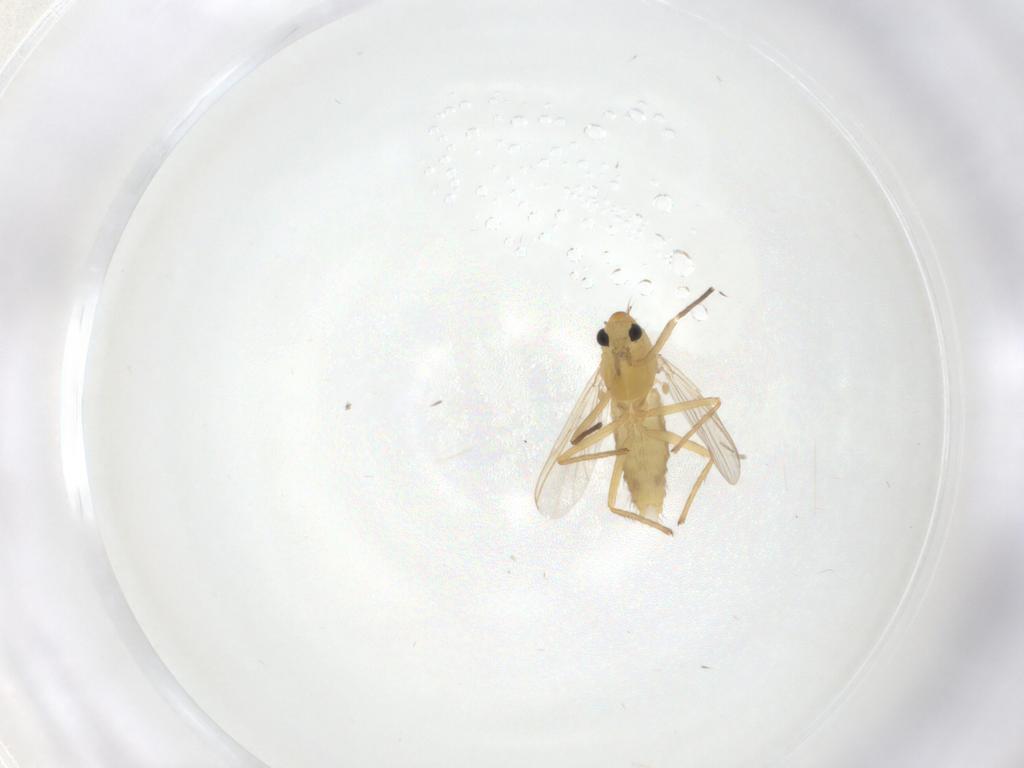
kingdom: Animalia
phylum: Arthropoda
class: Insecta
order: Diptera
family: Chironomidae
